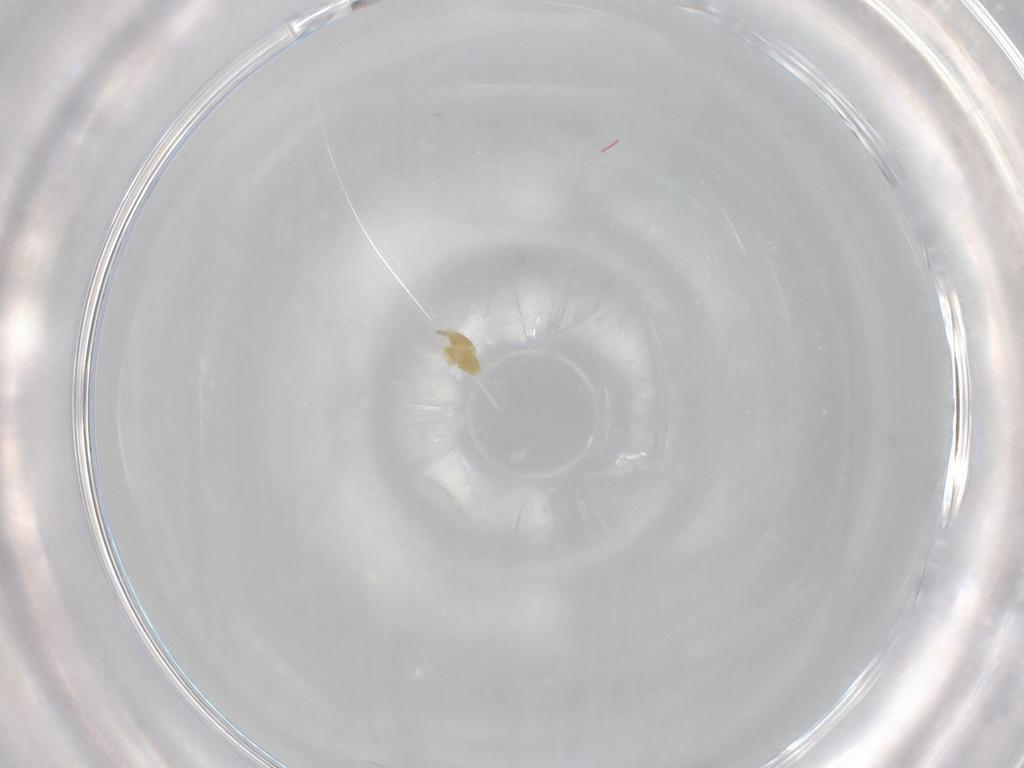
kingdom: Animalia
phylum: Arthropoda
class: Arachnida
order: Trombidiformes
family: Eupodidae
